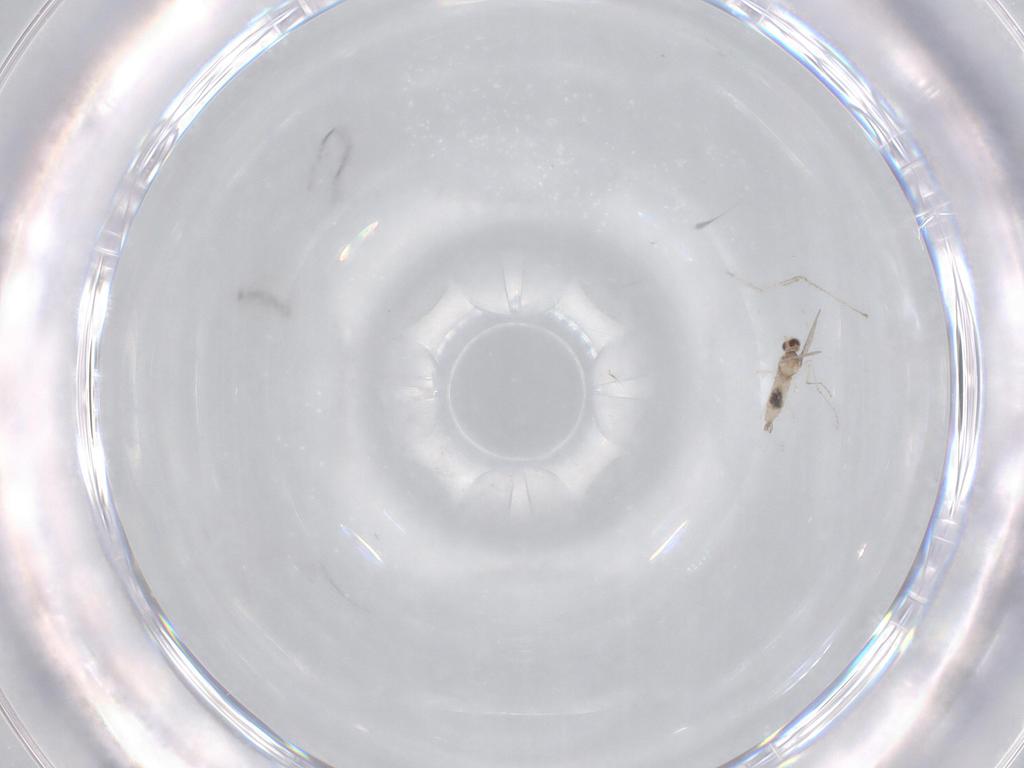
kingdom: Animalia
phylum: Arthropoda
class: Insecta
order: Diptera
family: Cecidomyiidae
